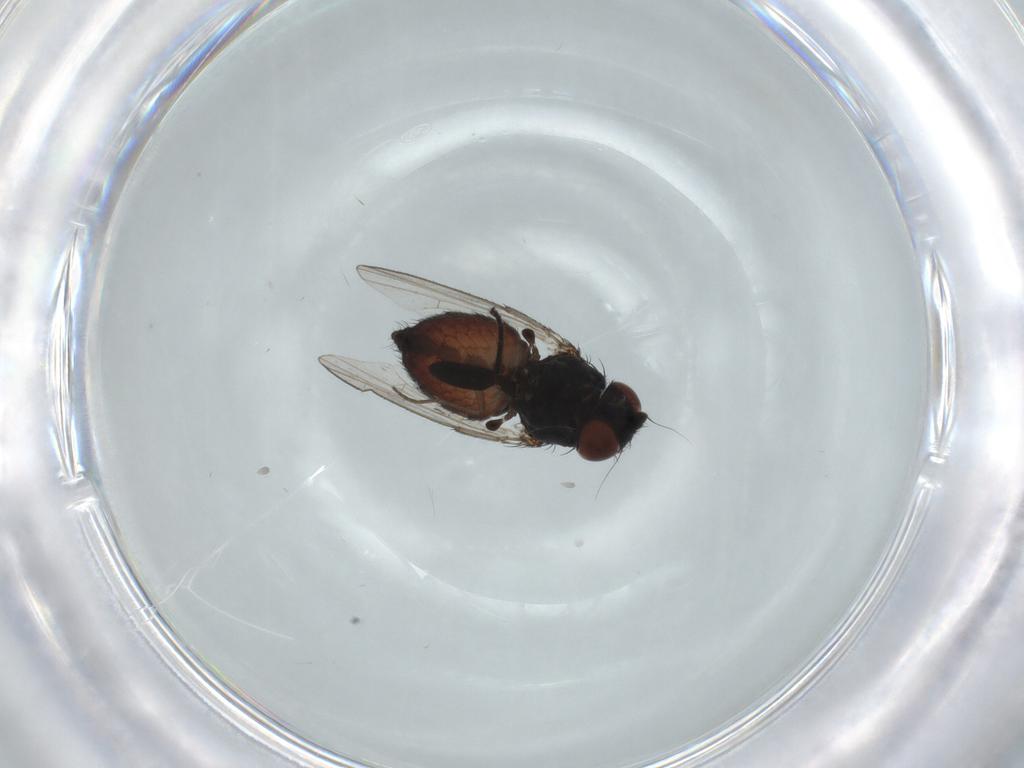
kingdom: Animalia
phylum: Arthropoda
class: Insecta
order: Diptera
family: Milichiidae
